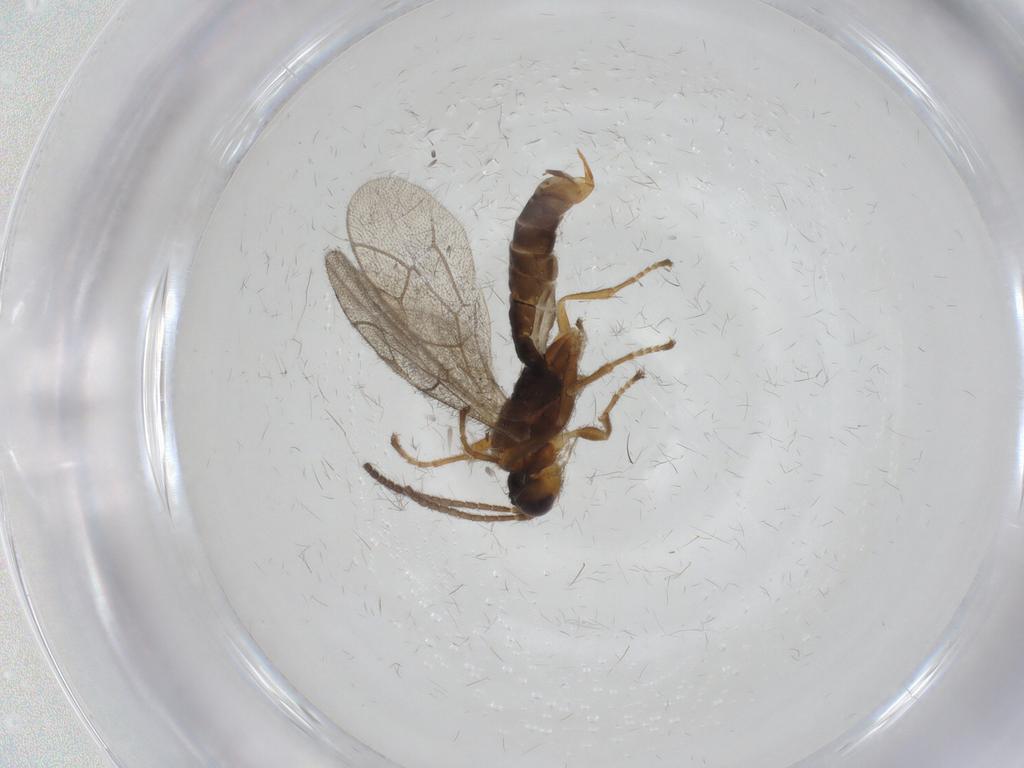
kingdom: Animalia
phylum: Arthropoda
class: Insecta
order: Hymenoptera
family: Ichneumonidae
